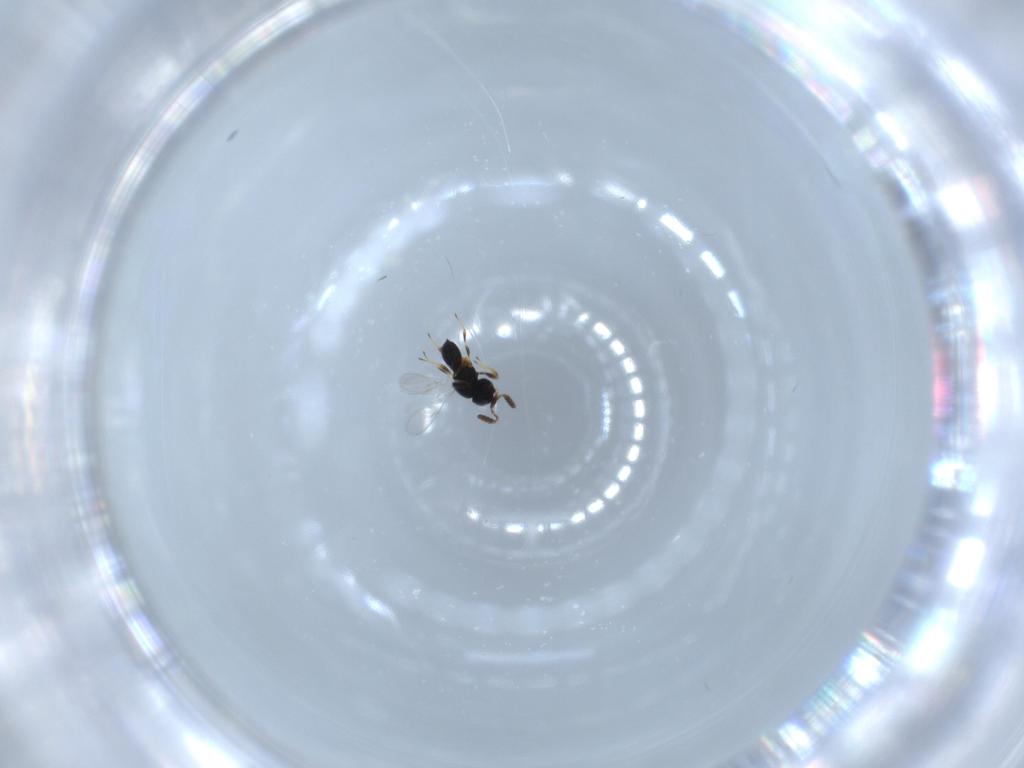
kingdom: Animalia
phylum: Arthropoda
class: Insecta
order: Hymenoptera
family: Scelionidae
